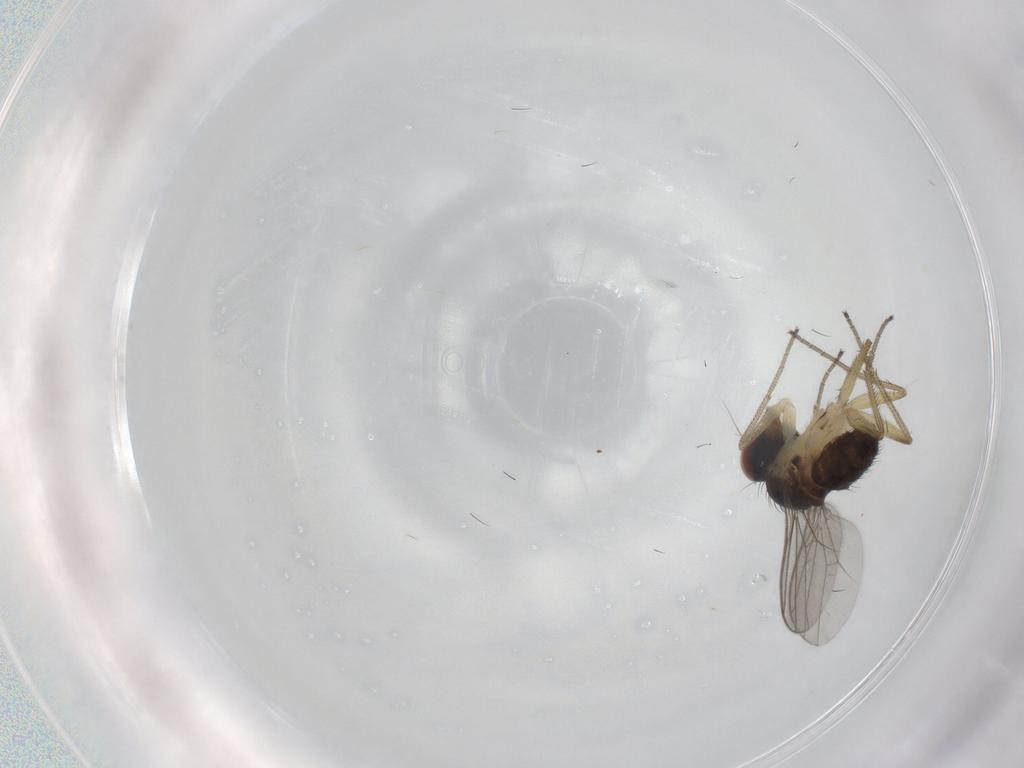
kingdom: Animalia
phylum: Arthropoda
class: Insecta
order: Diptera
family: Dolichopodidae
